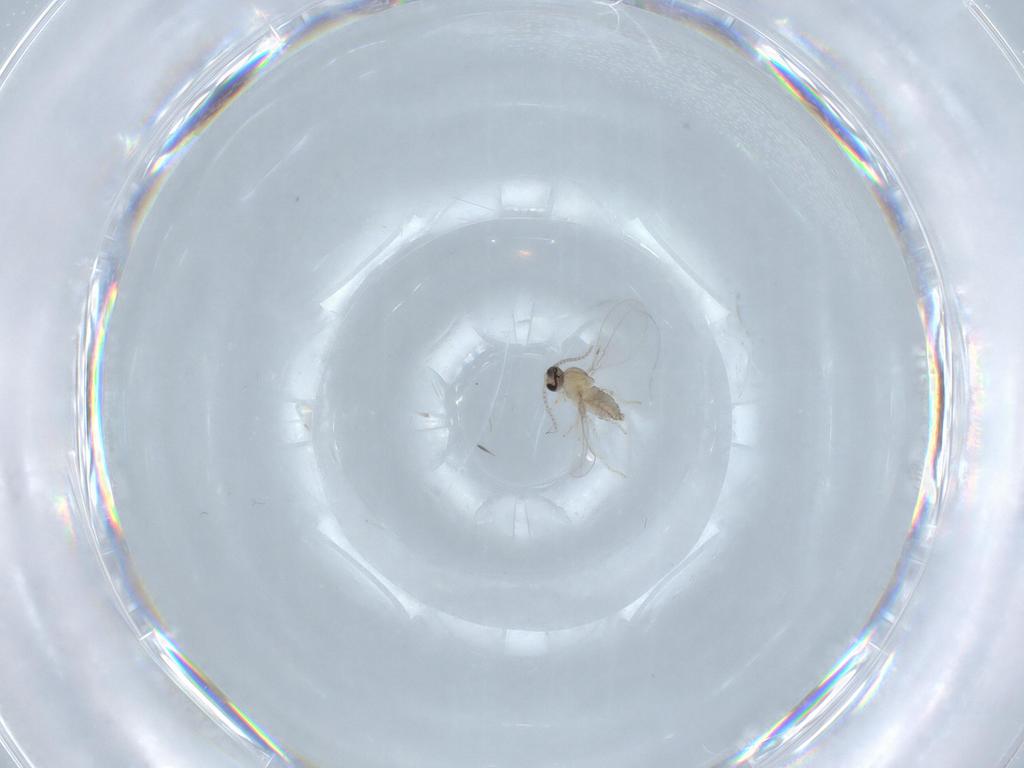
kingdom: Animalia
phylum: Arthropoda
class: Insecta
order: Diptera
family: Cecidomyiidae
